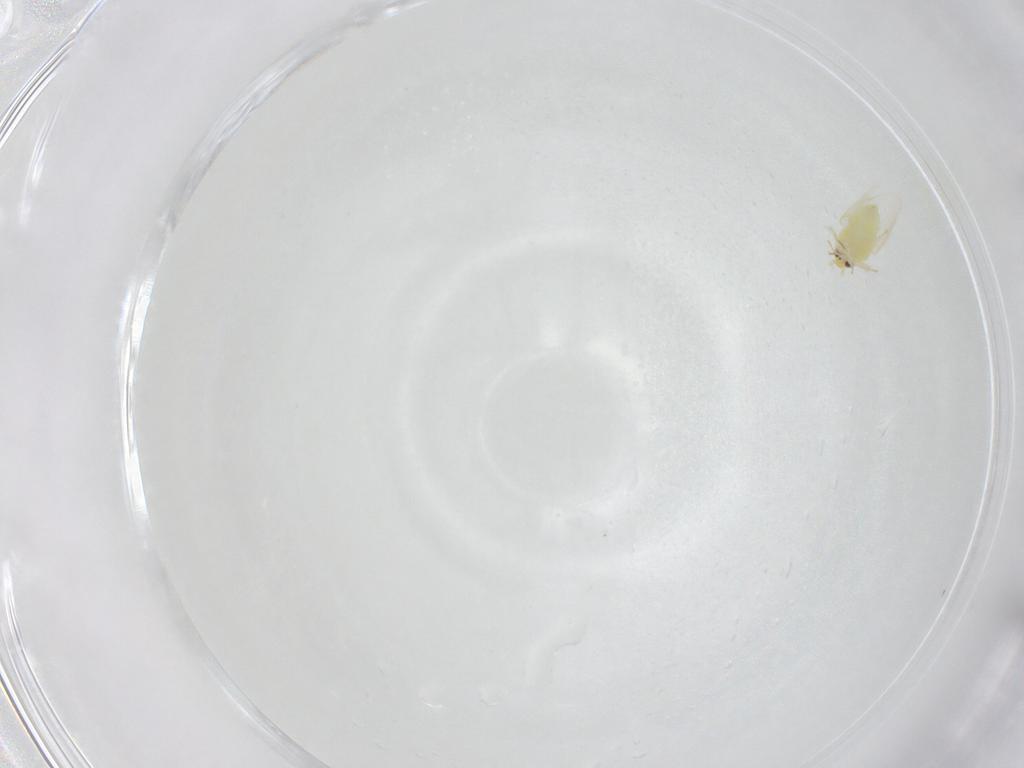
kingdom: Animalia
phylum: Arthropoda
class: Insecta
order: Hemiptera
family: Aleyrodidae
